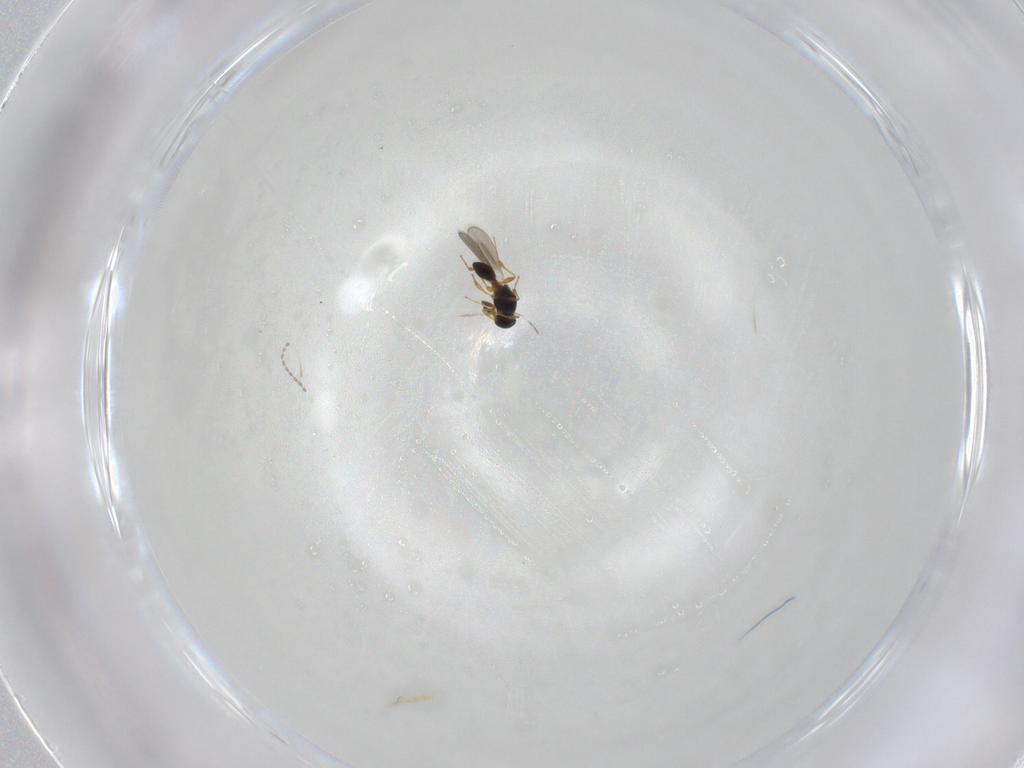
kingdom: Animalia
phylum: Arthropoda
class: Insecta
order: Hymenoptera
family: Platygastridae
